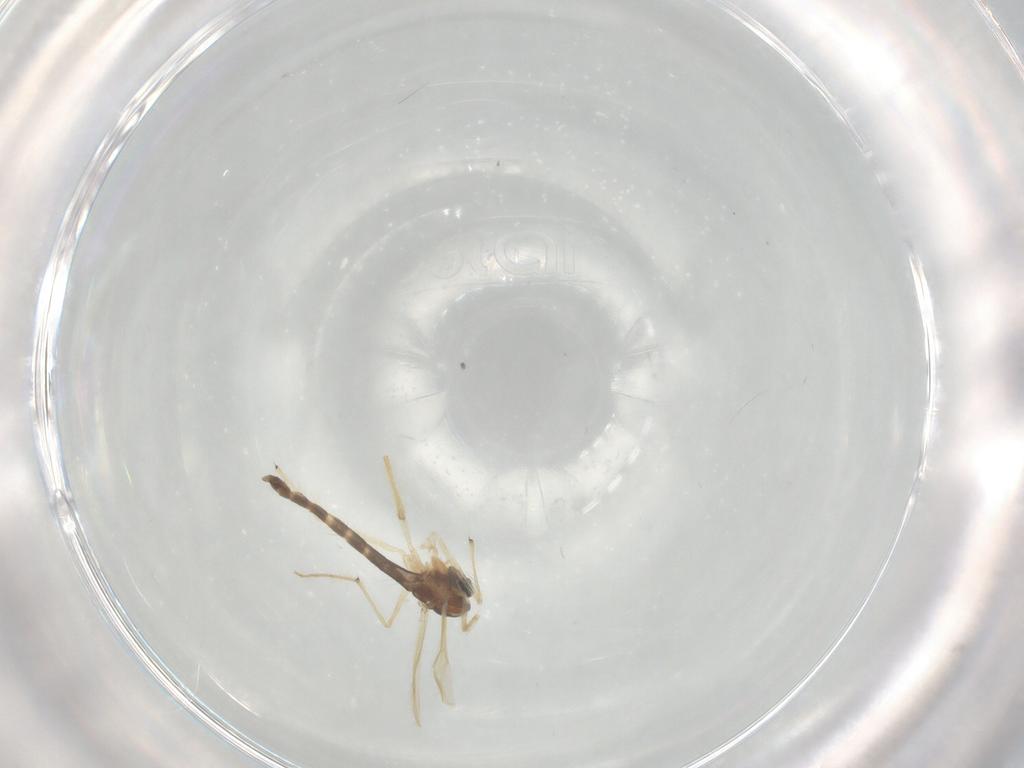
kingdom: Animalia
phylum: Arthropoda
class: Insecta
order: Diptera
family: Chironomidae
